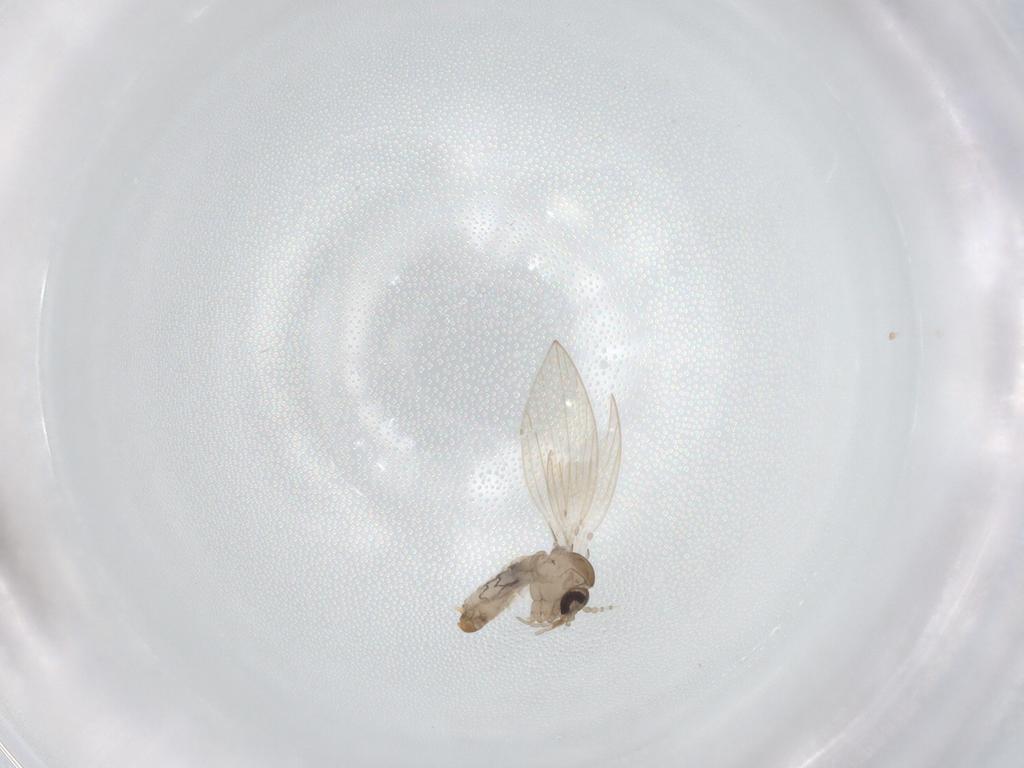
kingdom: Animalia
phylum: Arthropoda
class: Insecta
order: Diptera
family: Psychodidae
